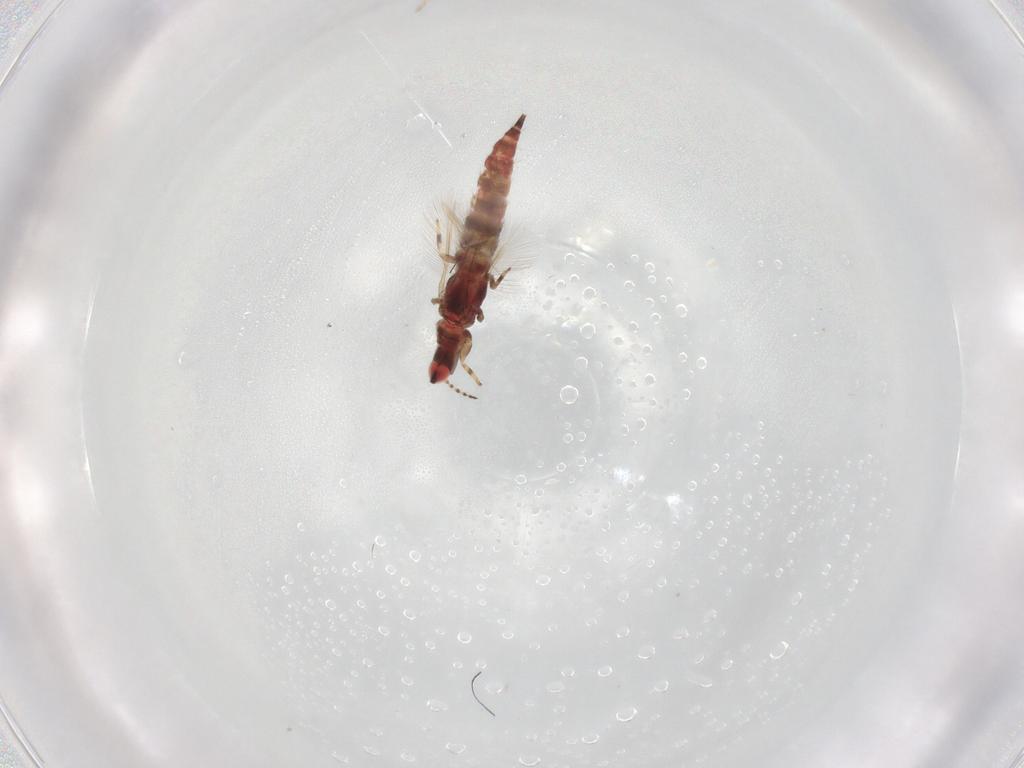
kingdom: Animalia
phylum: Arthropoda
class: Insecta
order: Thysanoptera
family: Phlaeothripidae
